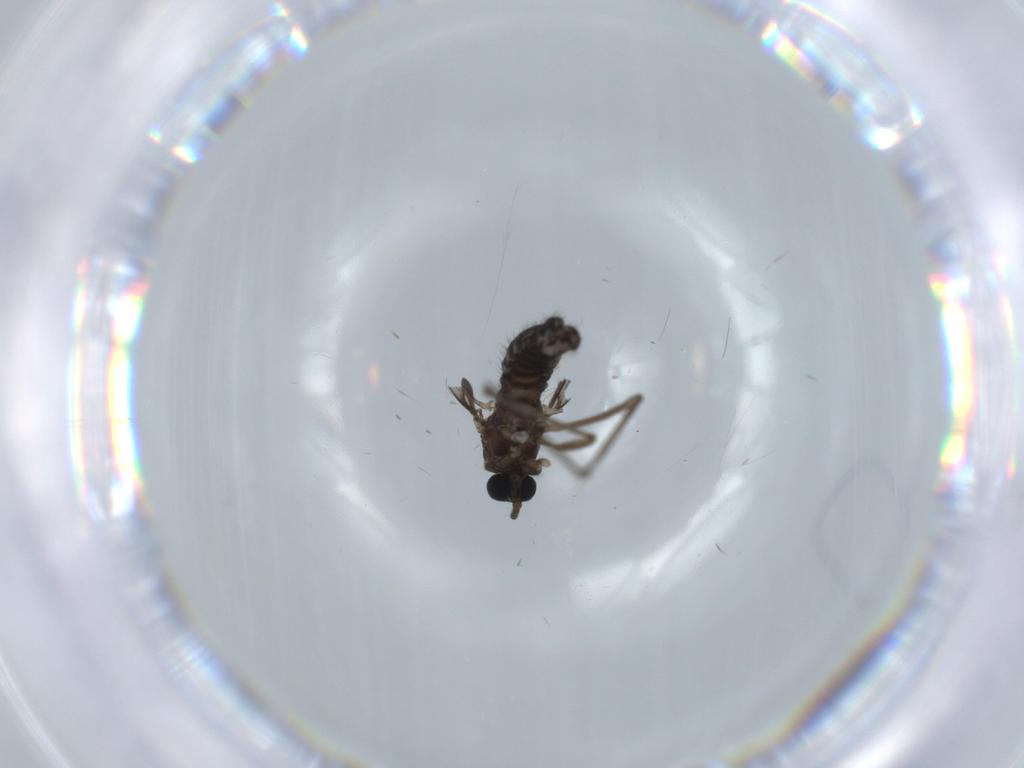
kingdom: Animalia
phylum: Arthropoda
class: Insecta
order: Diptera
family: Sciaridae
